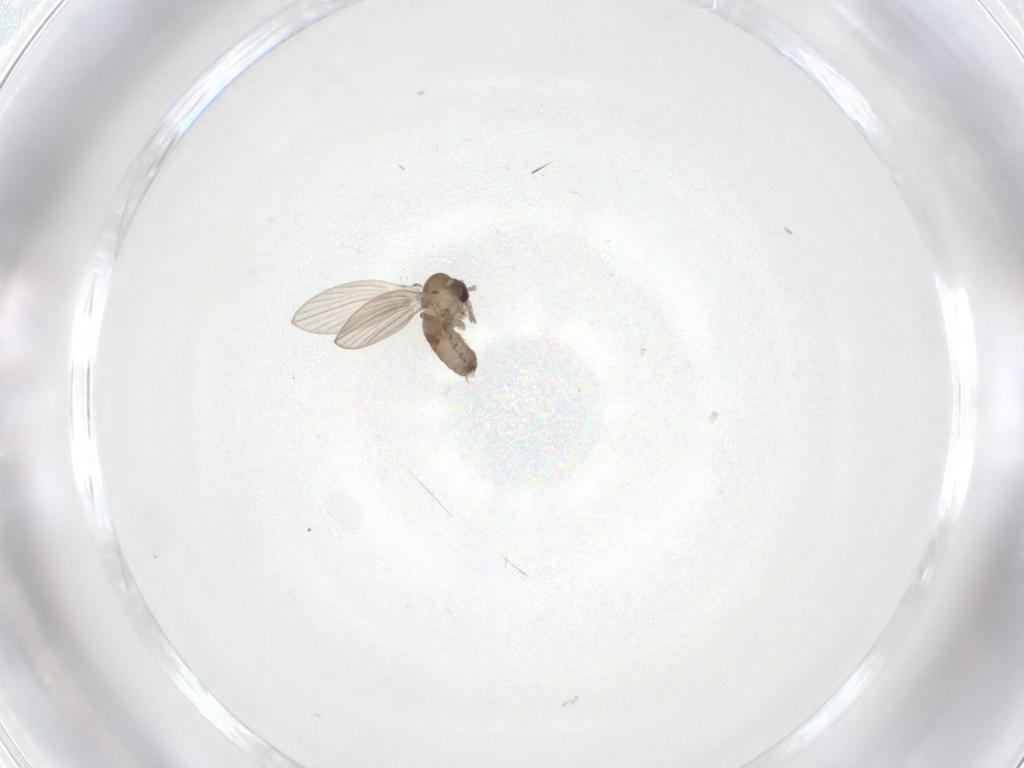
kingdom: Animalia
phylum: Arthropoda
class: Insecta
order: Diptera
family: Psychodidae
